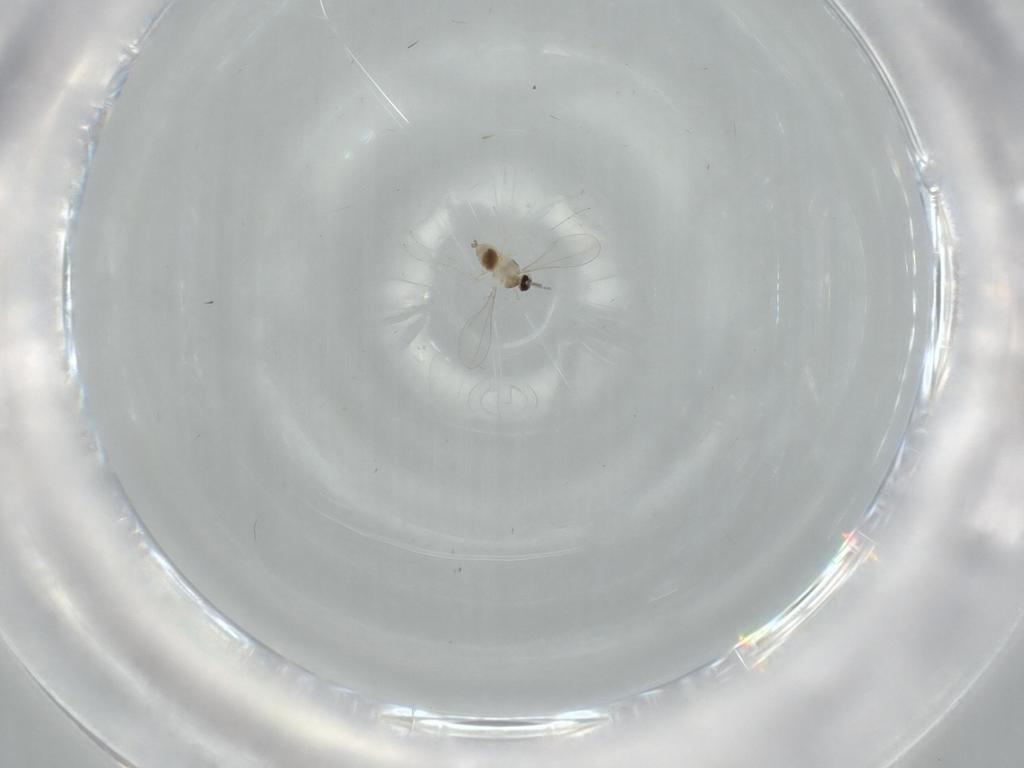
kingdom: Animalia
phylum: Arthropoda
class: Insecta
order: Diptera
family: Cecidomyiidae
